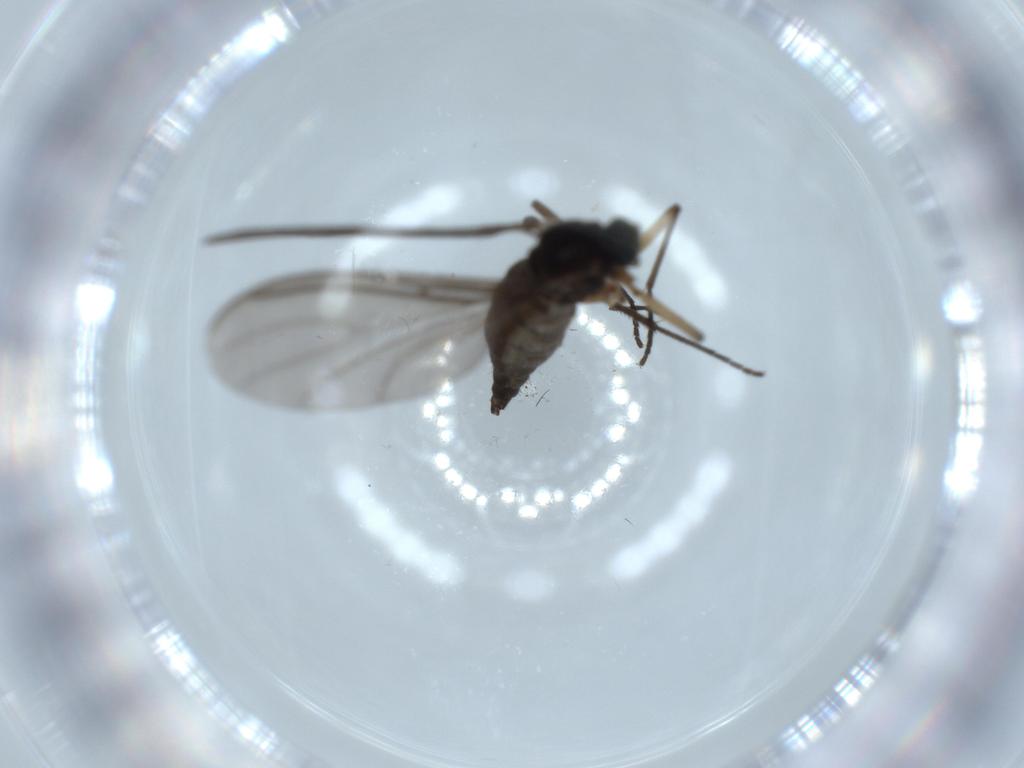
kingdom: Animalia
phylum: Arthropoda
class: Insecta
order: Diptera
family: Sciaridae
